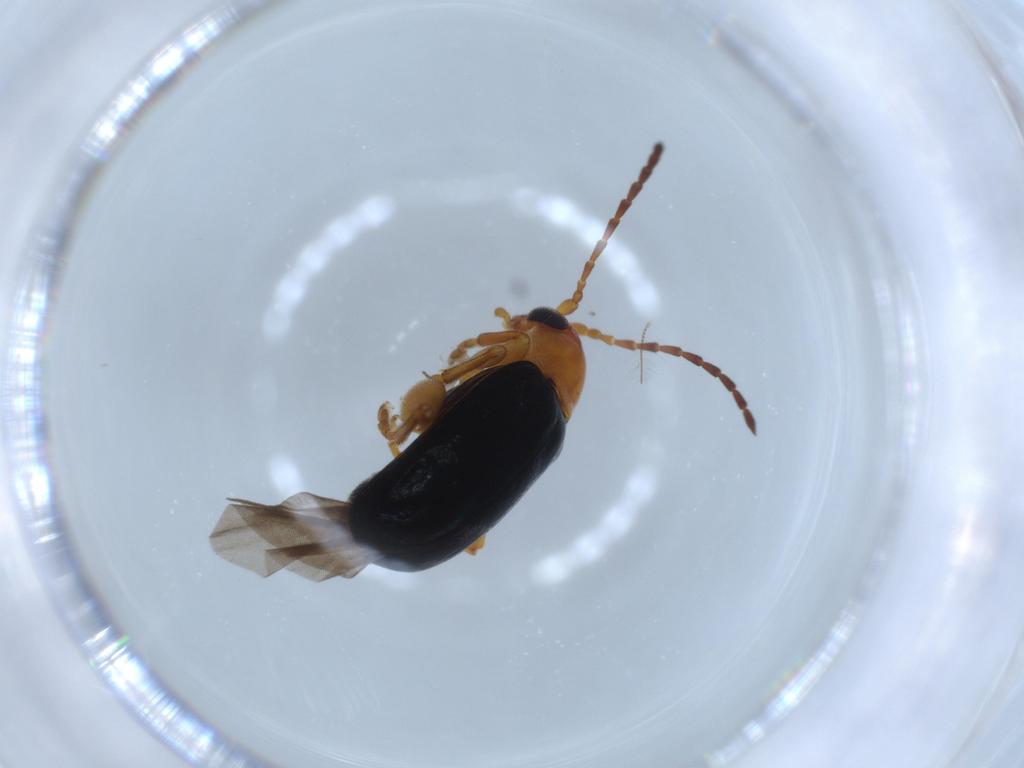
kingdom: Animalia
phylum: Arthropoda
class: Insecta
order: Coleoptera
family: Chrysomelidae
